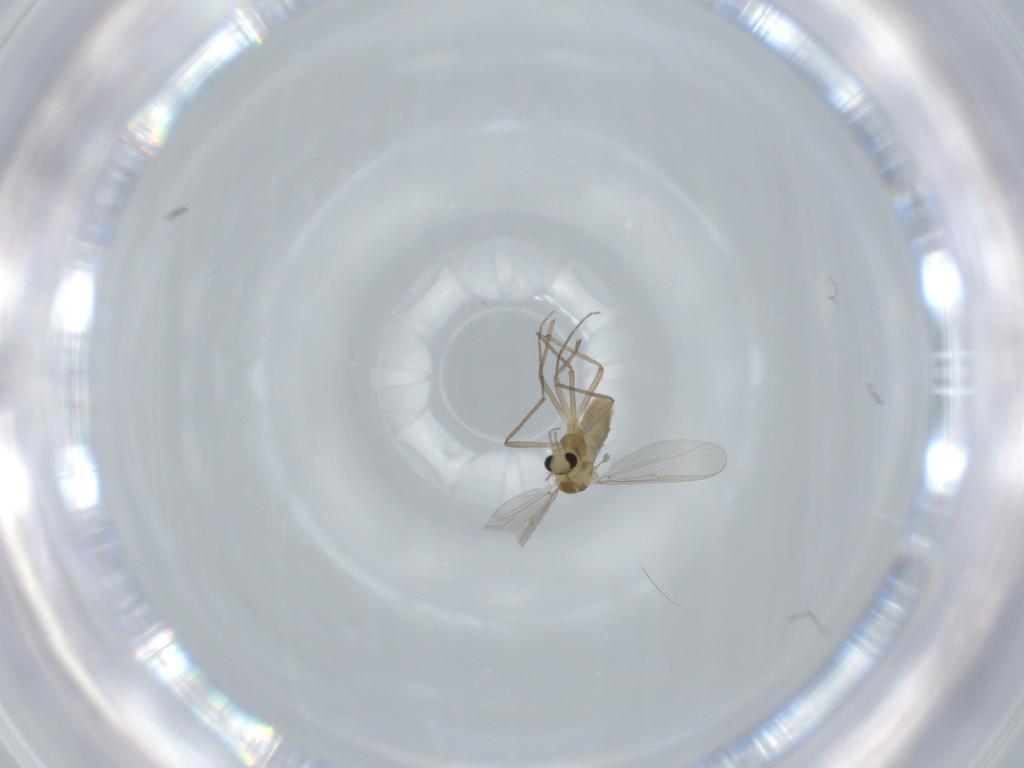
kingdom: Animalia
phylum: Arthropoda
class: Insecta
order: Diptera
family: Chironomidae
